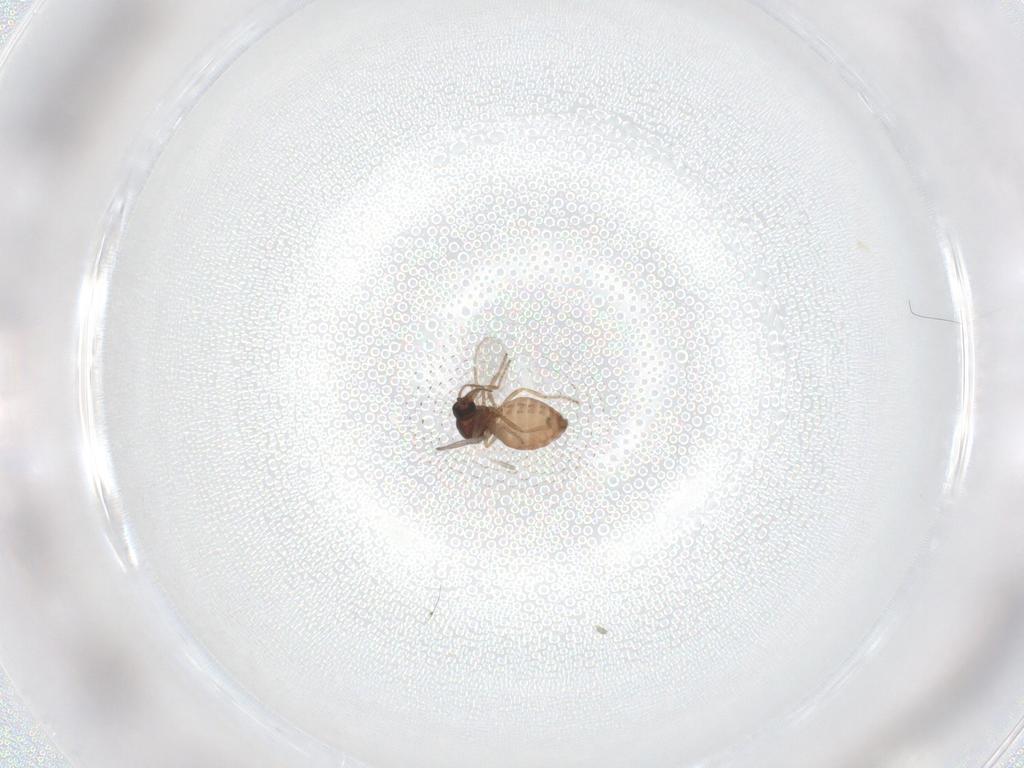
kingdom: Animalia
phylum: Arthropoda
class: Insecta
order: Diptera
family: Ceratopogonidae
